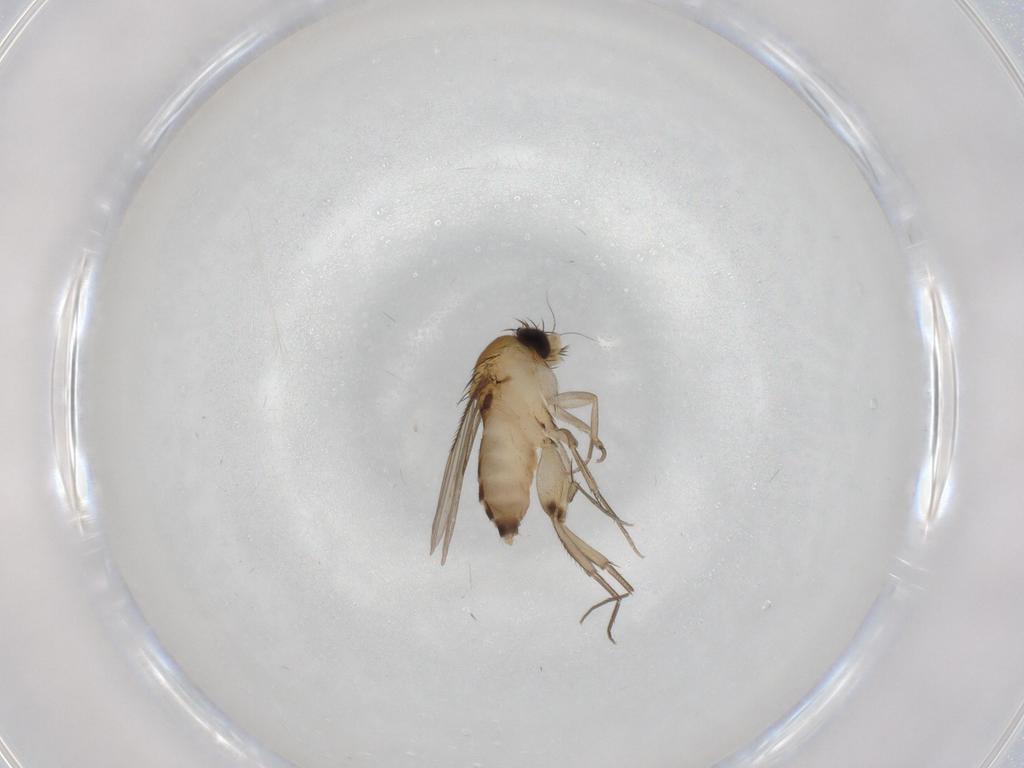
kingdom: Animalia
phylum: Arthropoda
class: Insecta
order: Diptera
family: Phoridae
